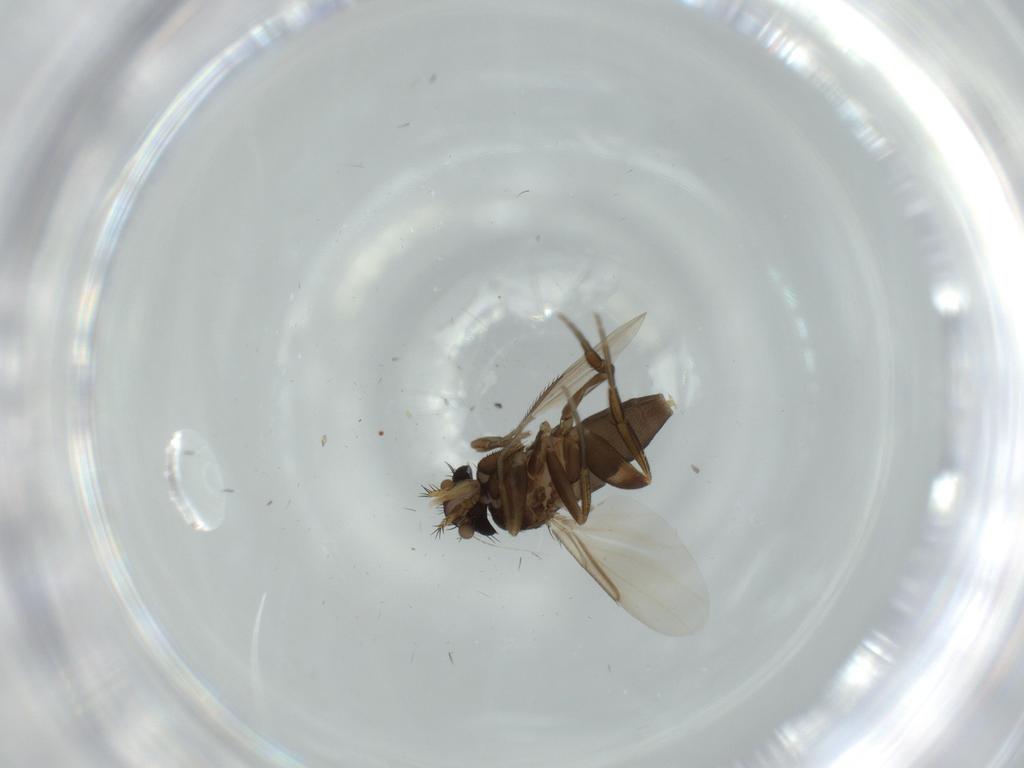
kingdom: Animalia
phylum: Arthropoda
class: Insecta
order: Diptera
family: Phoridae
